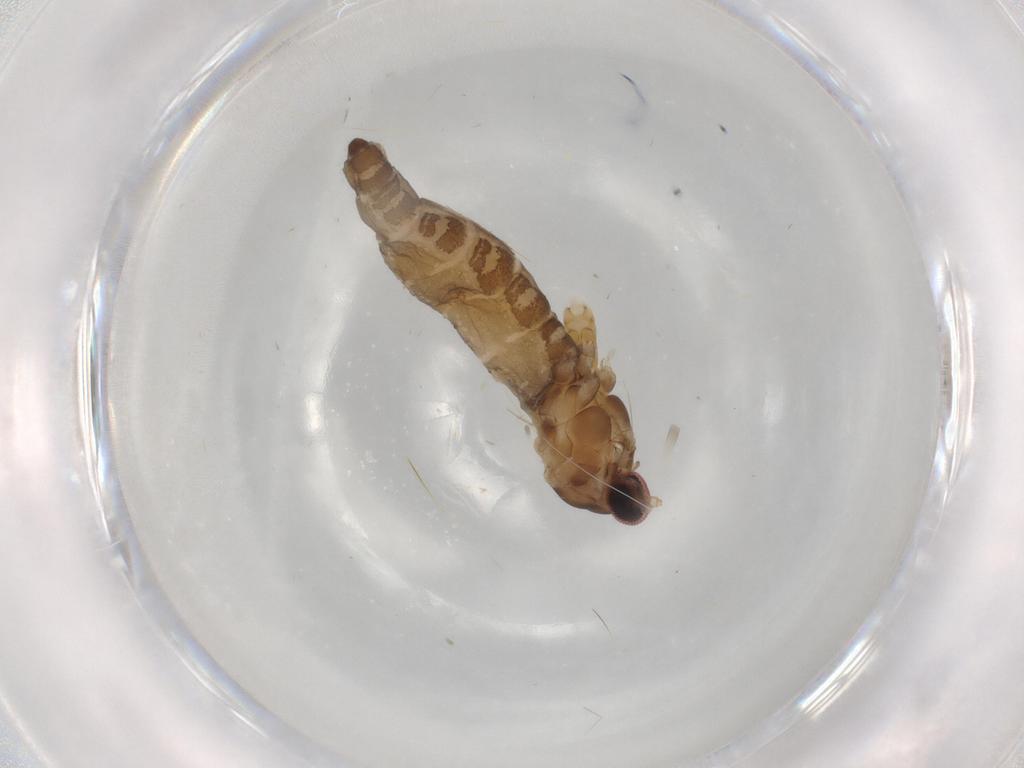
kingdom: Animalia
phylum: Arthropoda
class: Insecta
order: Diptera
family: Cecidomyiidae
